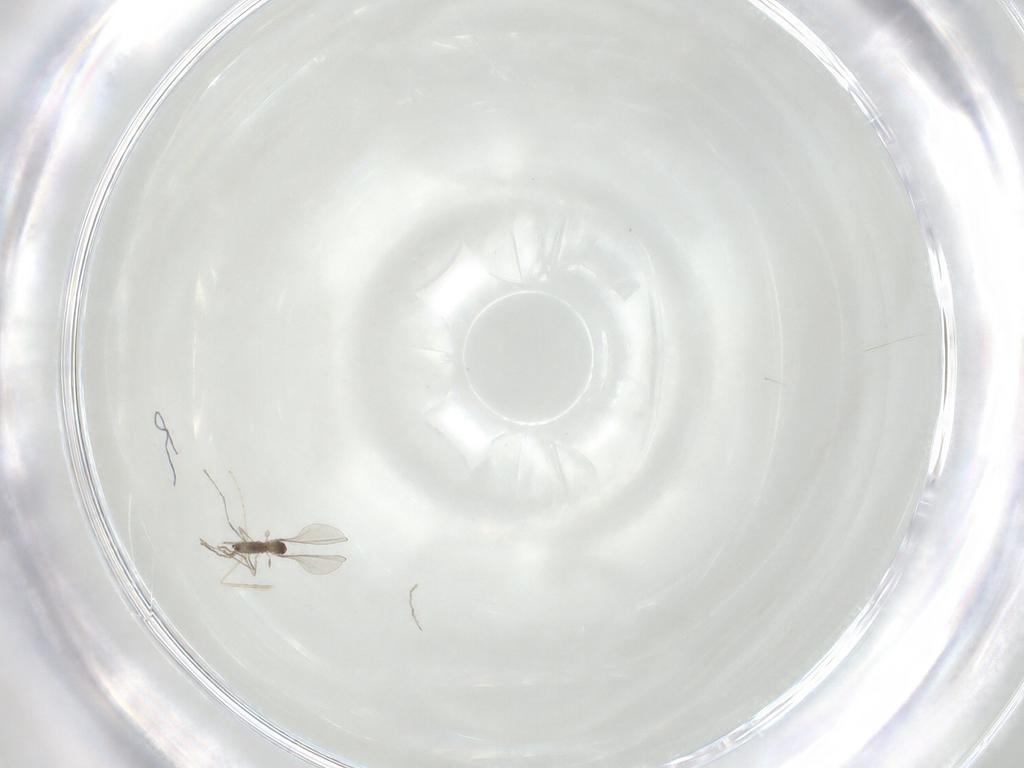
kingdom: Animalia
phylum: Arthropoda
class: Insecta
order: Diptera
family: Cecidomyiidae
